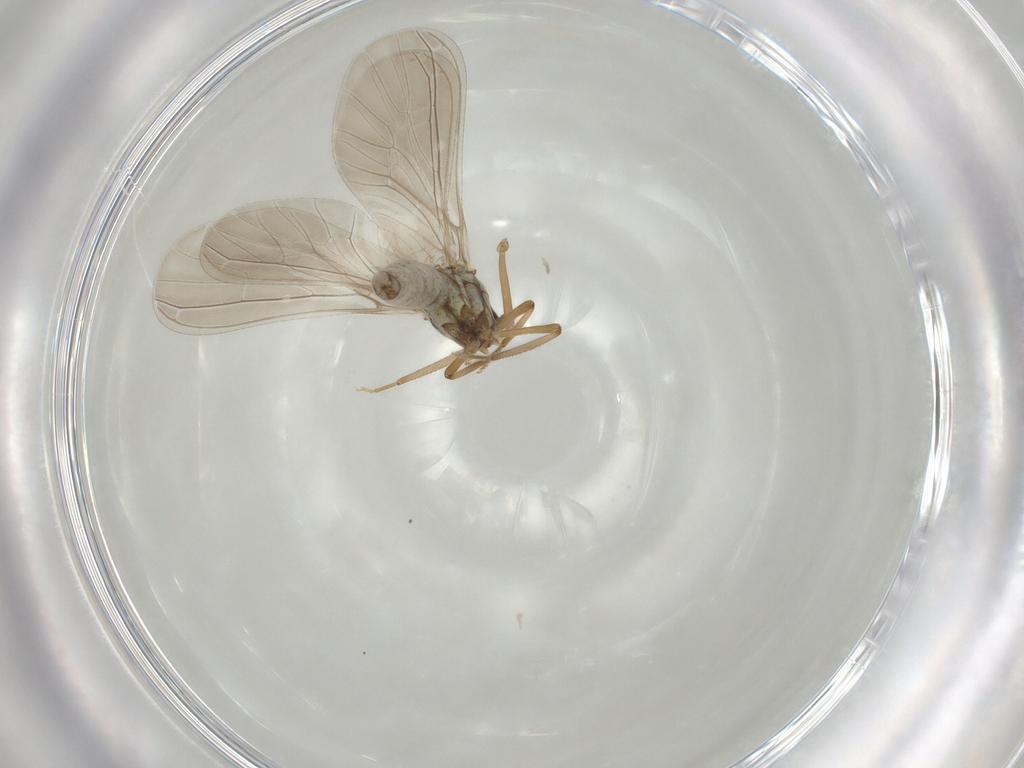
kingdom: Animalia
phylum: Arthropoda
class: Insecta
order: Neuroptera
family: Coniopterygidae
